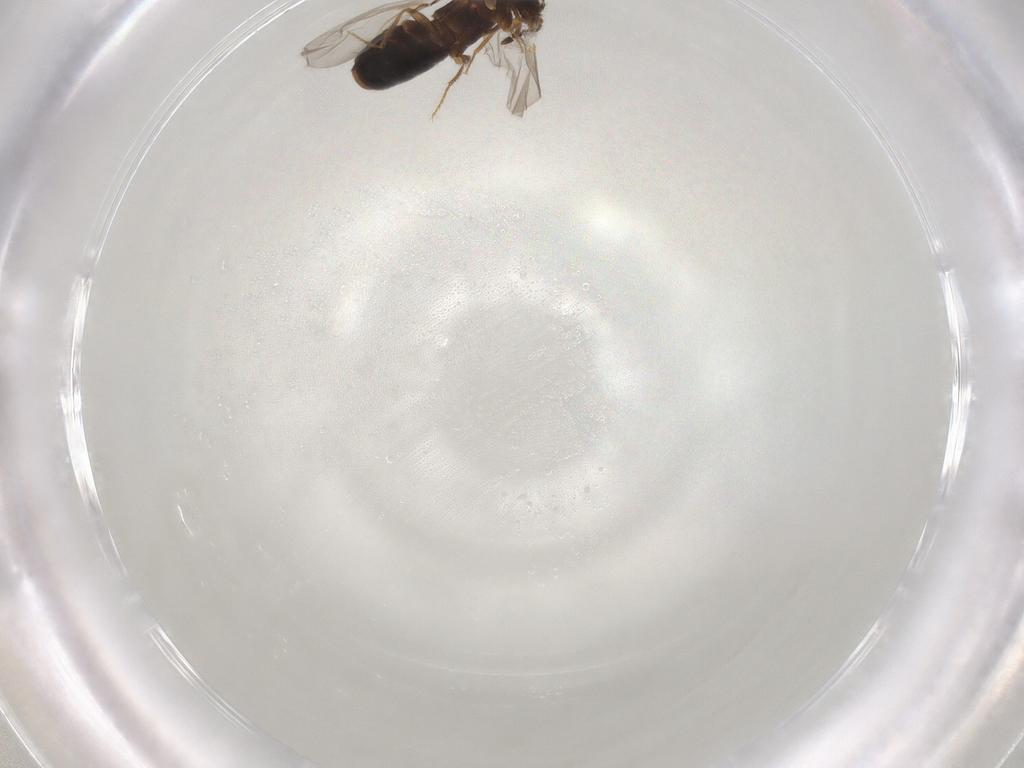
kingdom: Animalia
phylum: Arthropoda
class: Insecta
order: Coleoptera
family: Staphylinidae
